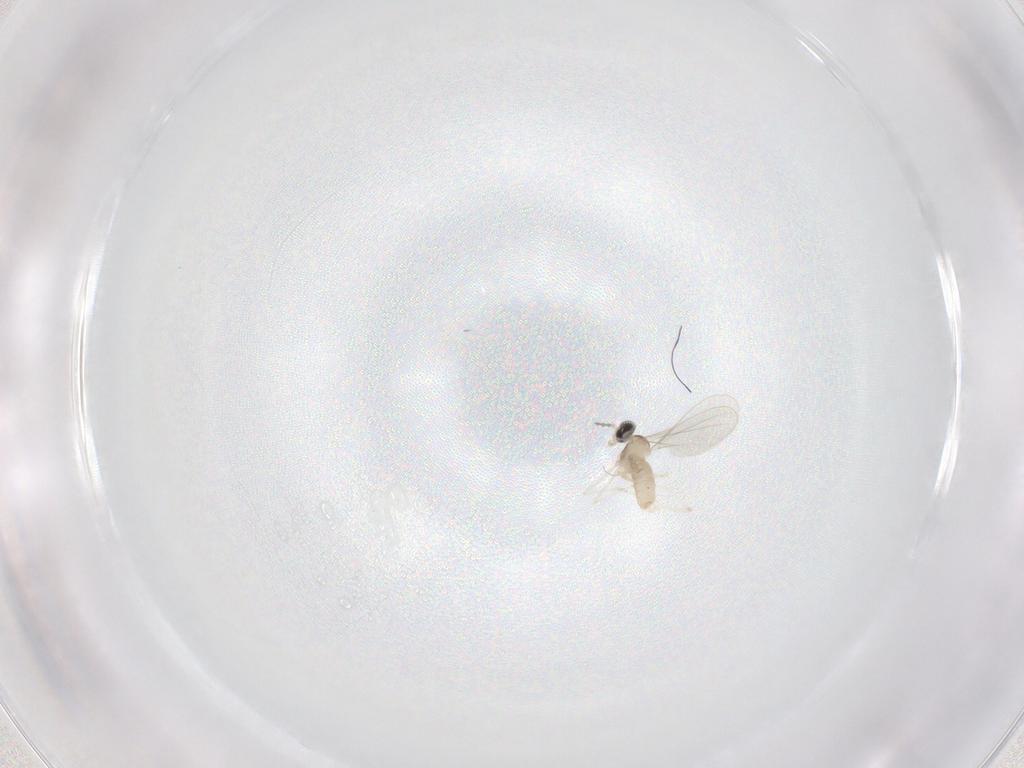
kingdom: Animalia
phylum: Arthropoda
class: Insecta
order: Diptera
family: Cecidomyiidae
